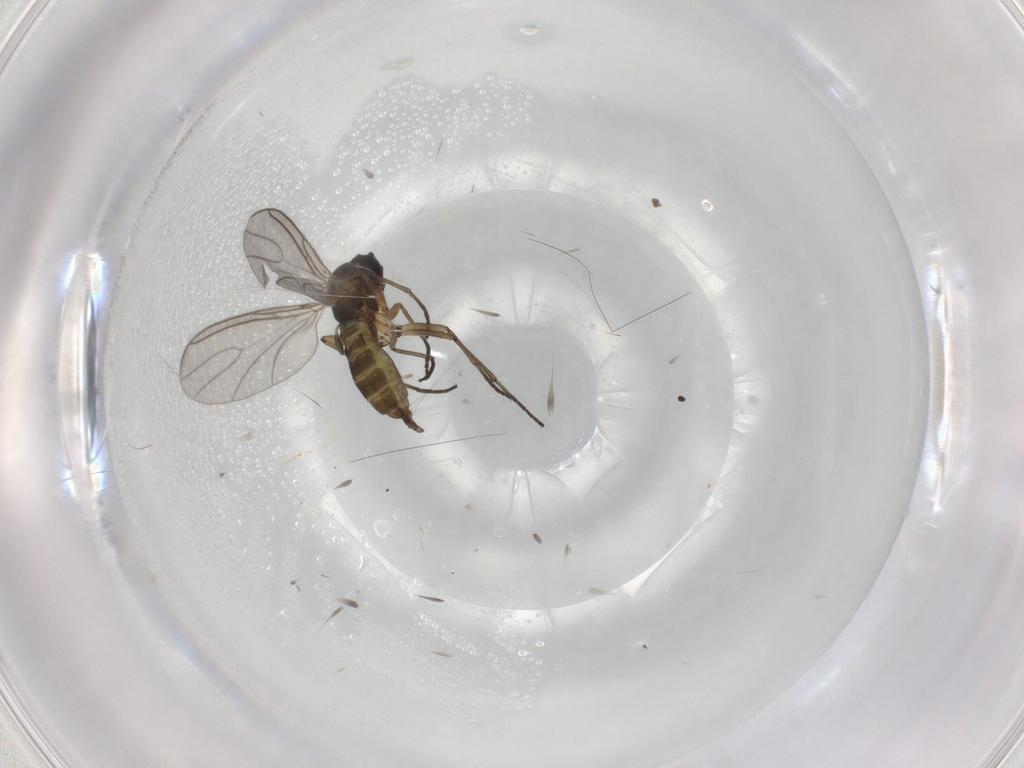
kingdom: Animalia
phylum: Arthropoda
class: Insecta
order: Diptera
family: Sciaridae
